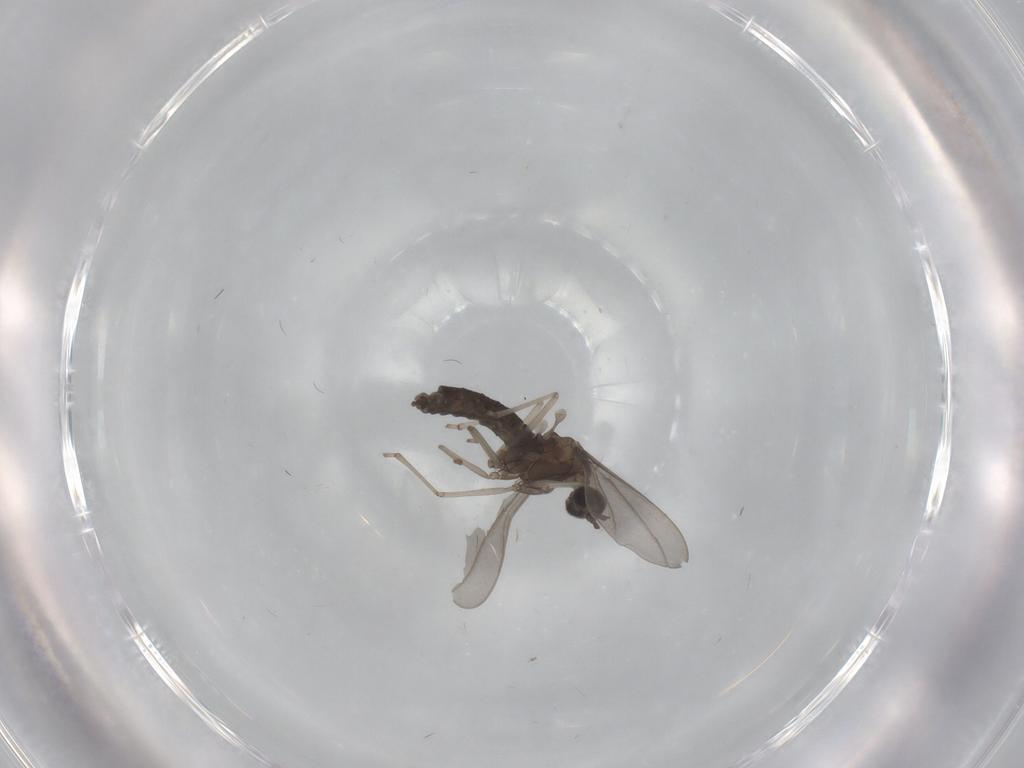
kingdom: Animalia
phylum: Arthropoda
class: Insecta
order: Diptera
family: Cecidomyiidae
